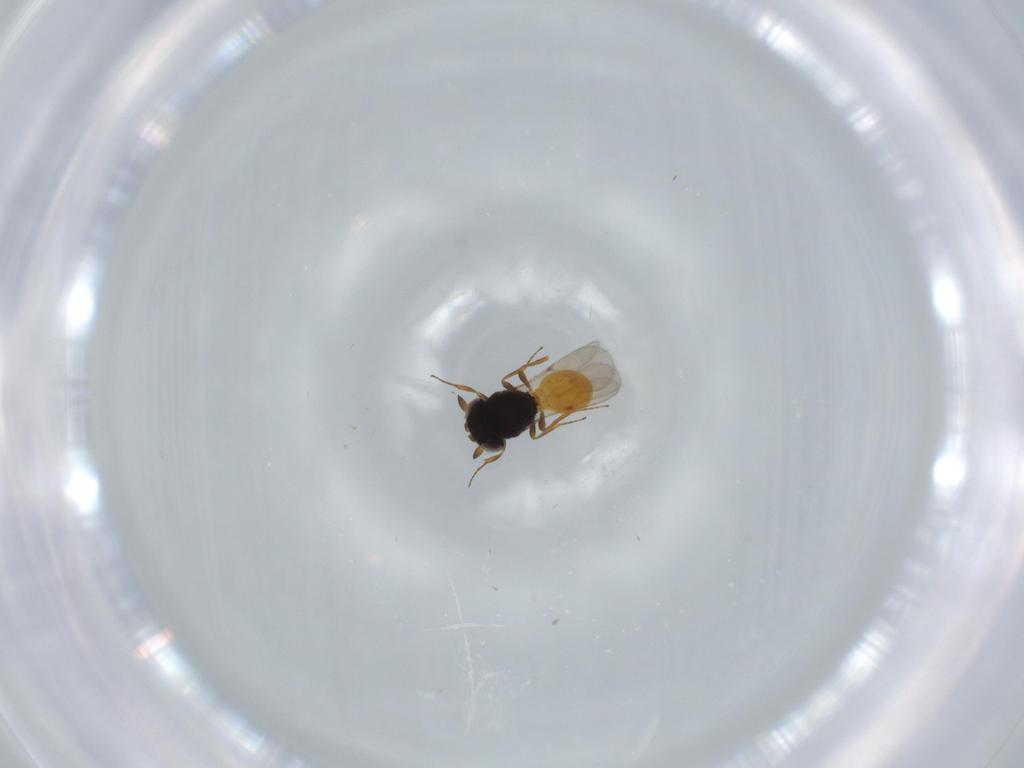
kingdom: Animalia
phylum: Arthropoda
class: Insecta
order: Hymenoptera
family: Scelionidae
